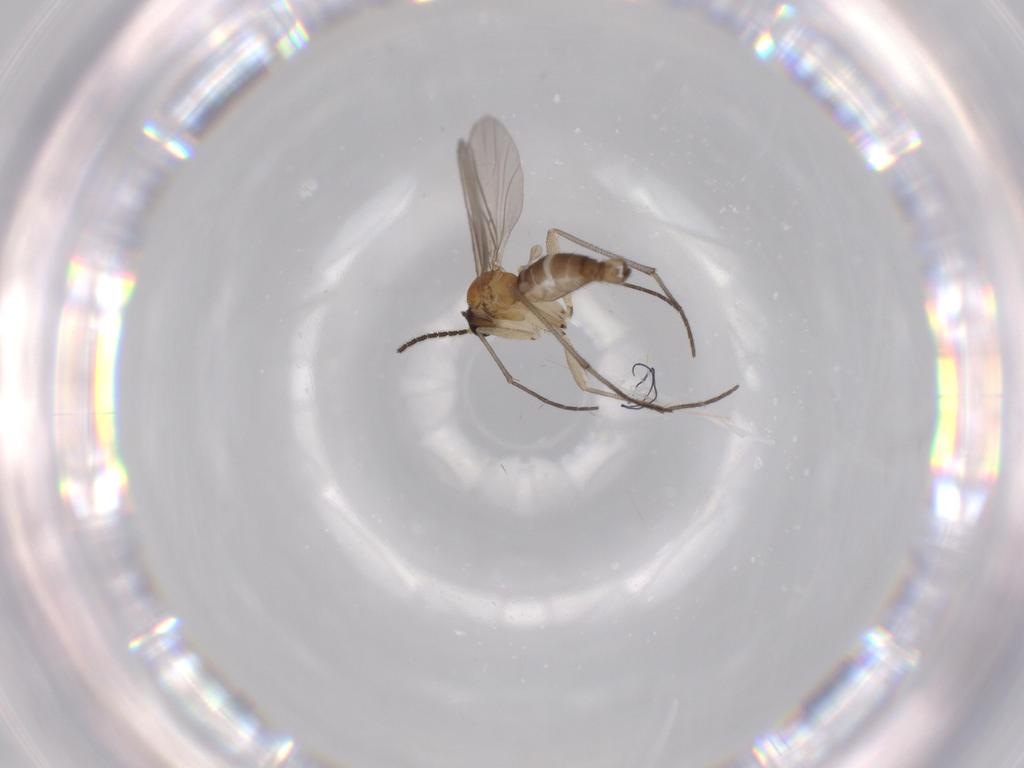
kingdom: Animalia
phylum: Arthropoda
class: Insecta
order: Diptera
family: Sciaridae
